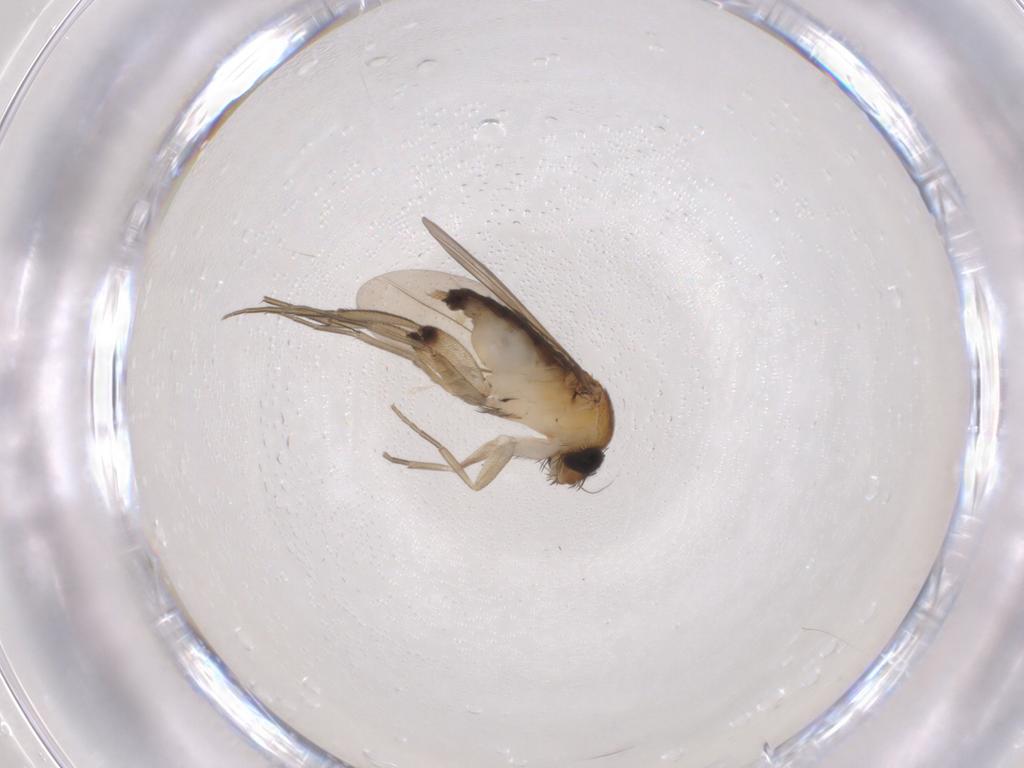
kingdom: Animalia
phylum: Arthropoda
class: Insecta
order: Diptera
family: Phoridae
